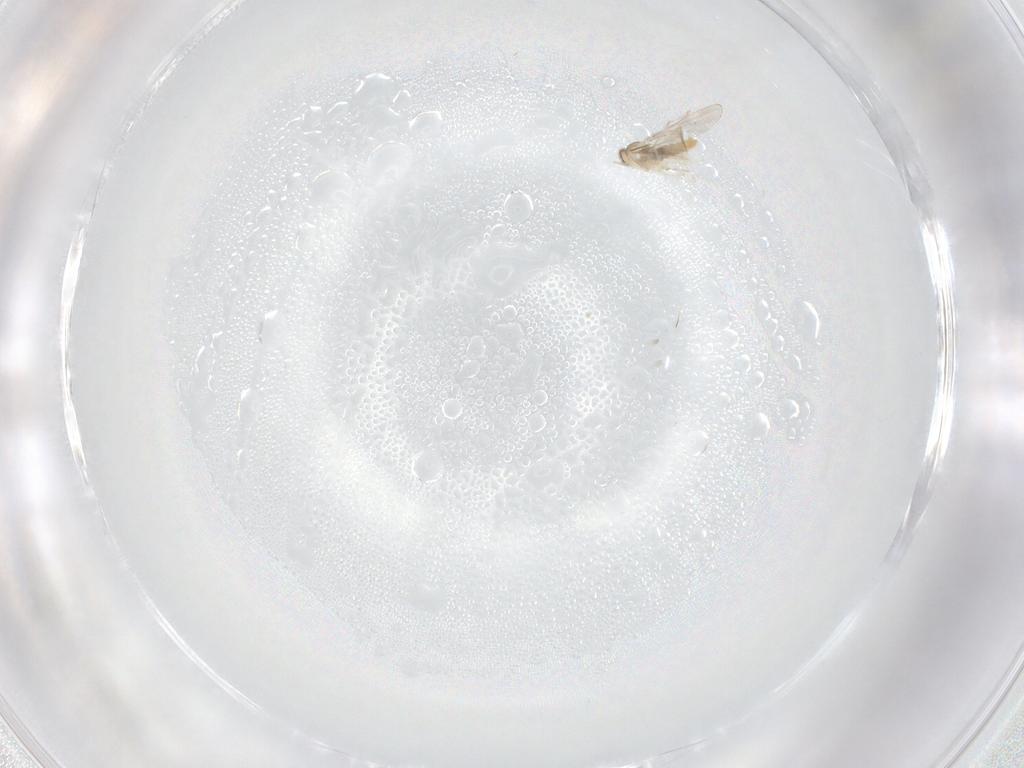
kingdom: Animalia
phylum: Arthropoda
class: Insecta
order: Diptera
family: Cecidomyiidae
